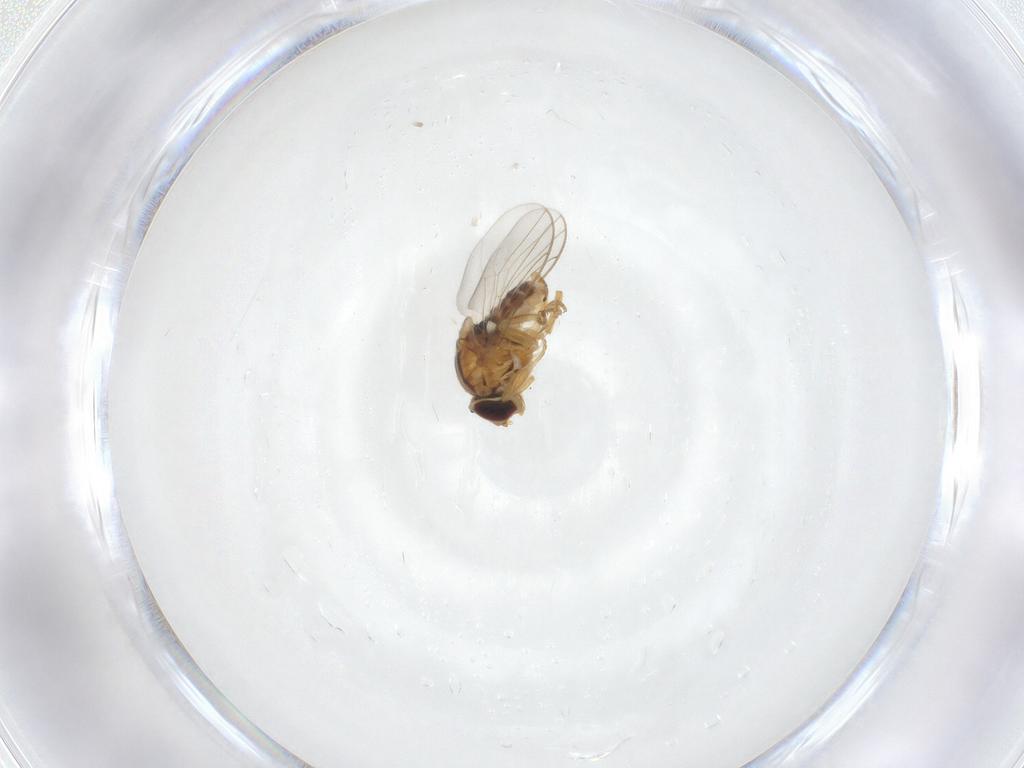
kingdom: Animalia
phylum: Arthropoda
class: Insecta
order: Diptera
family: Chloropidae
